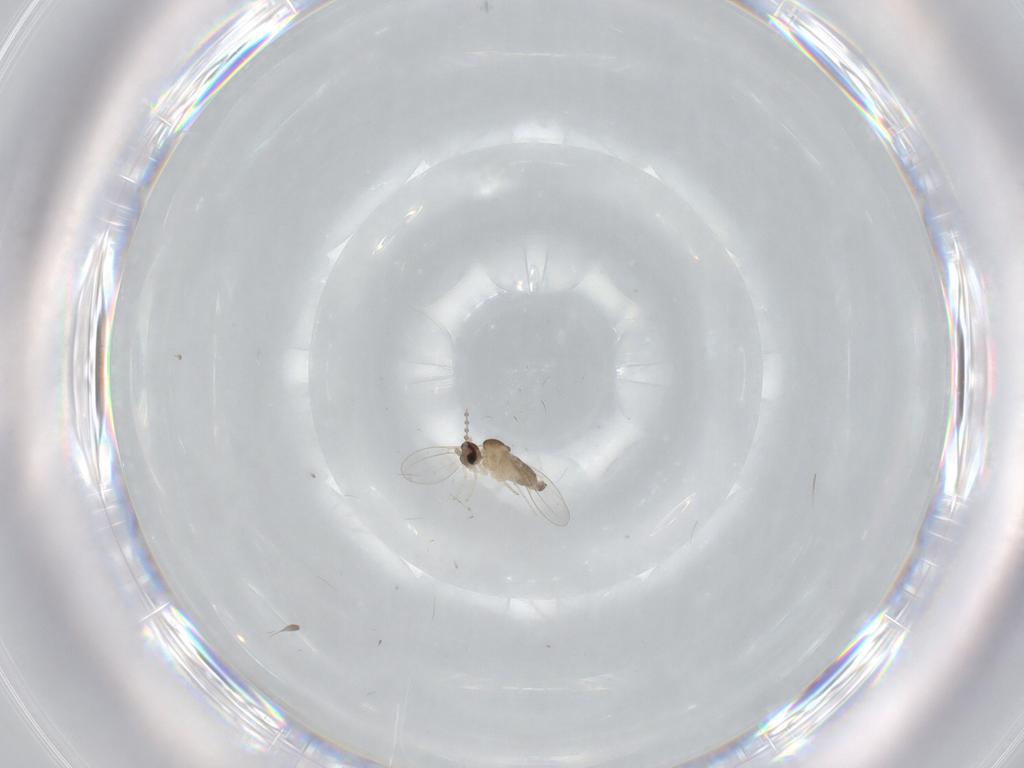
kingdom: Animalia
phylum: Arthropoda
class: Insecta
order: Diptera
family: Cecidomyiidae
